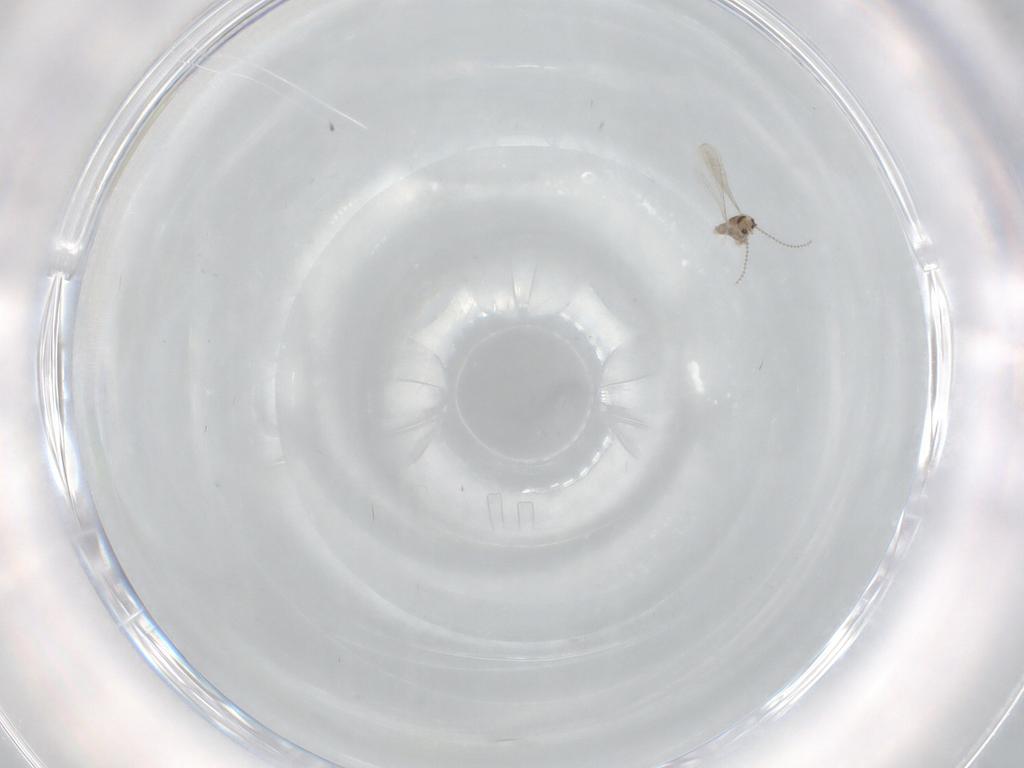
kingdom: Animalia
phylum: Arthropoda
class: Insecta
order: Diptera
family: Cecidomyiidae
